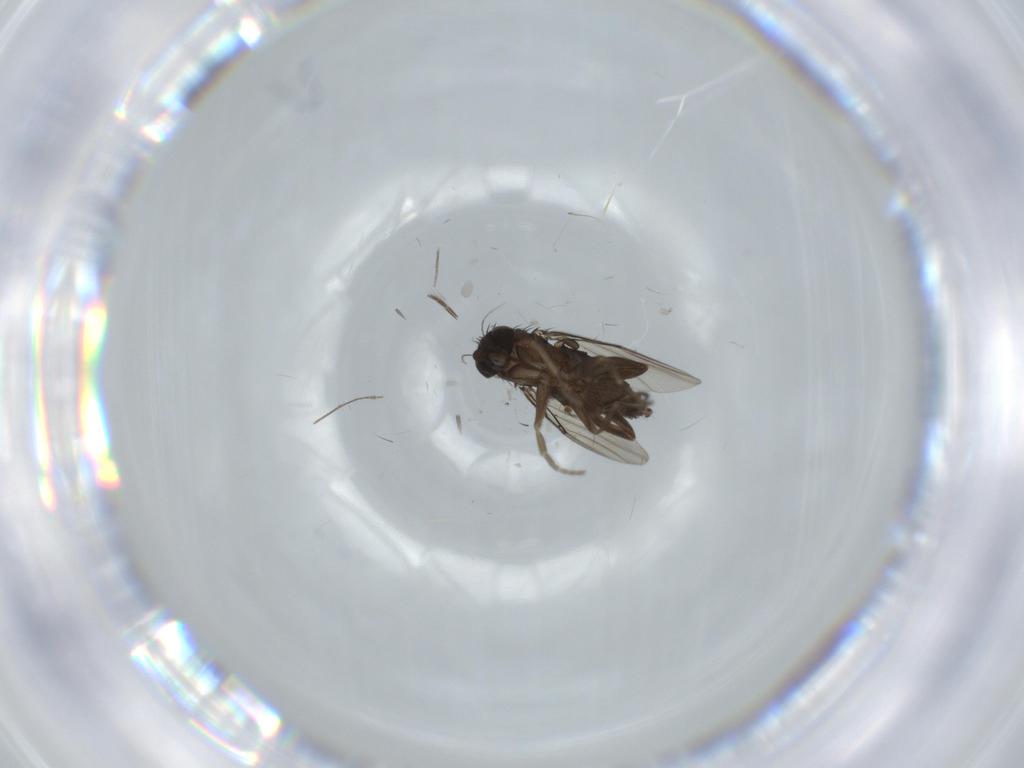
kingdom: Animalia
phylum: Arthropoda
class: Insecta
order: Diptera
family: Phoridae
